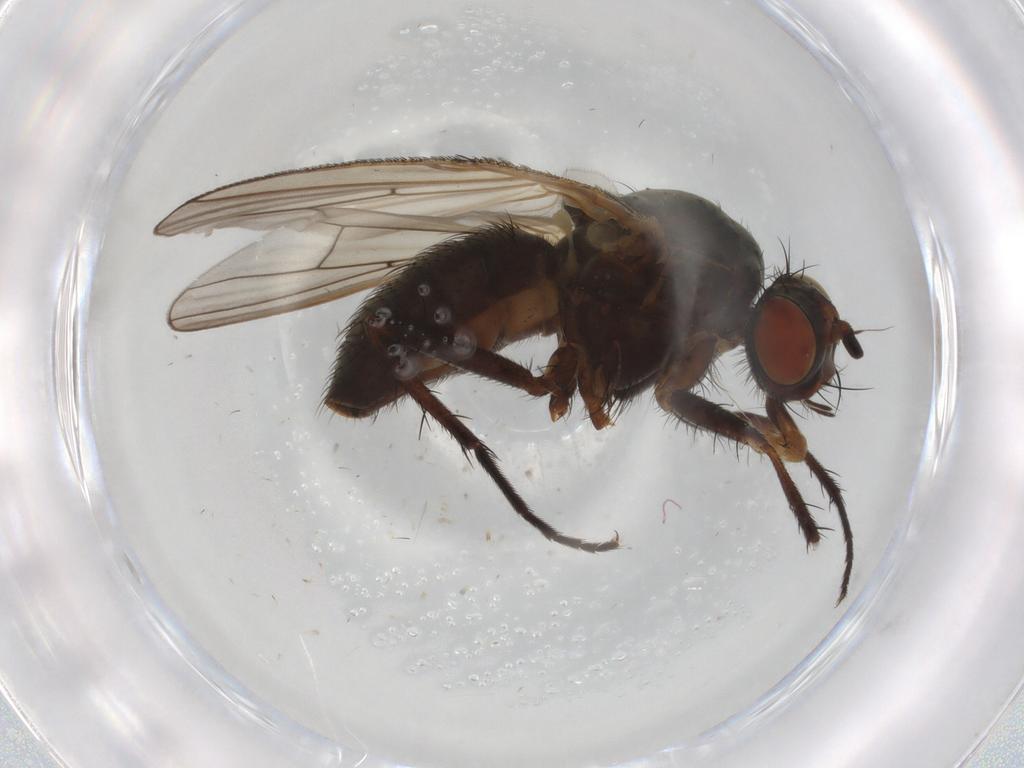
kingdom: Animalia
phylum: Arthropoda
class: Insecta
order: Diptera
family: Anthomyiidae
